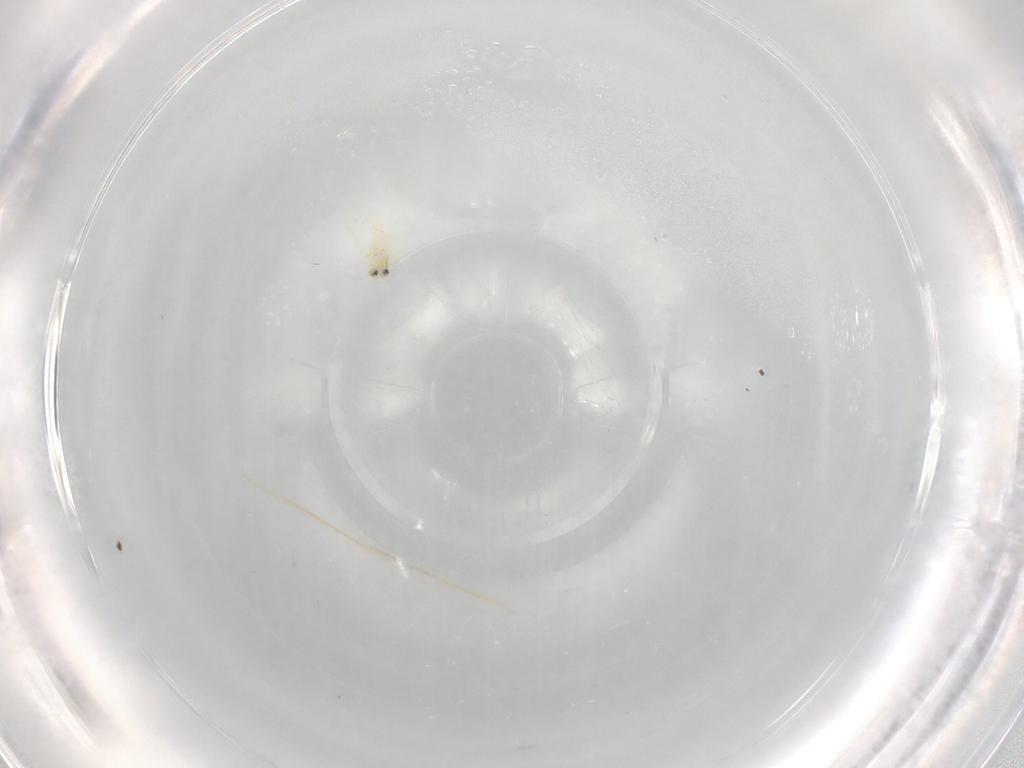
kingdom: Animalia
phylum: Arthropoda
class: Insecta
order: Hemiptera
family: Aleyrodidae
